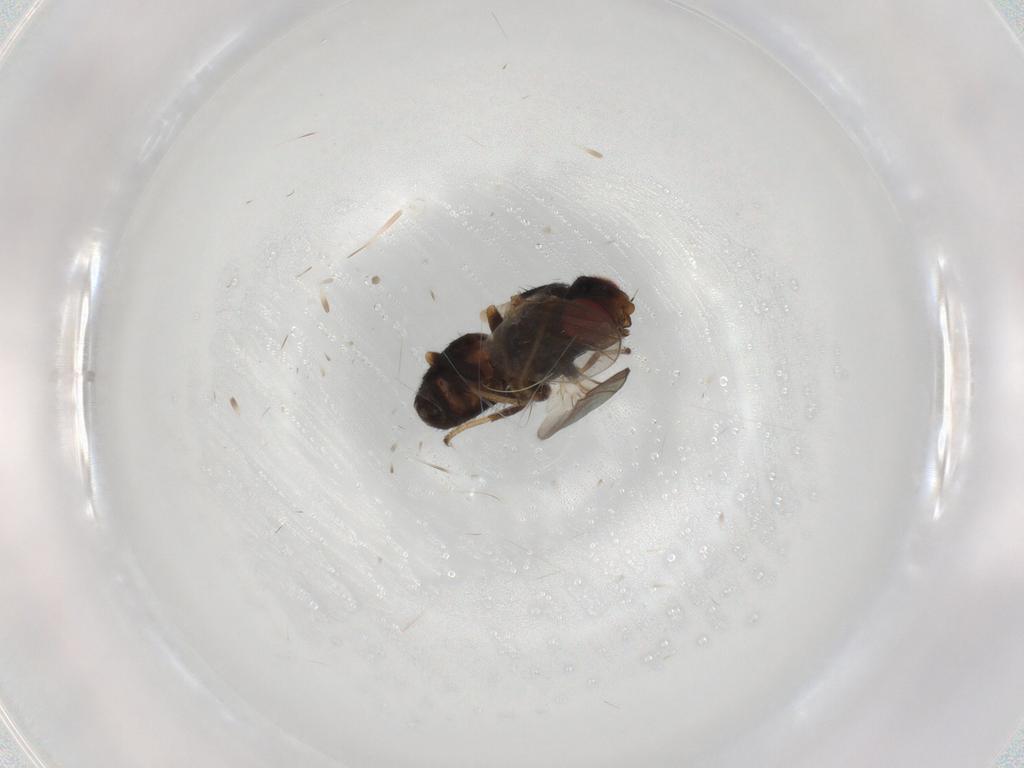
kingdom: Animalia
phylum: Arthropoda
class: Insecta
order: Diptera
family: Chloropidae
